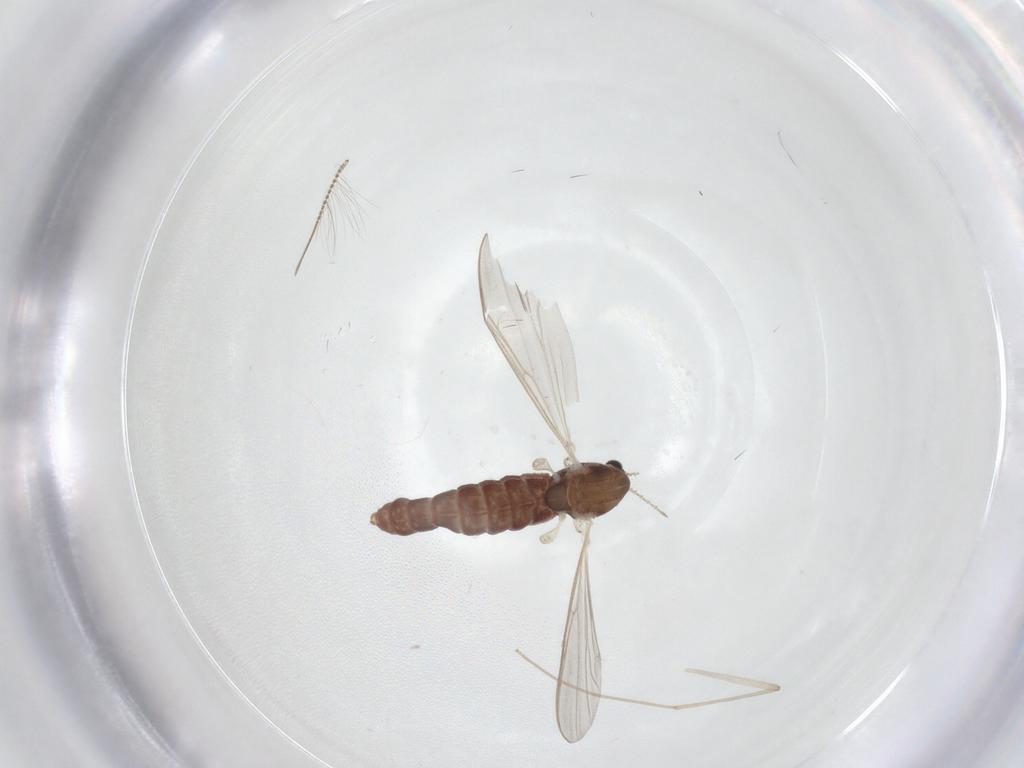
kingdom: Animalia
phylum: Arthropoda
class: Insecta
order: Diptera
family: Chironomidae
